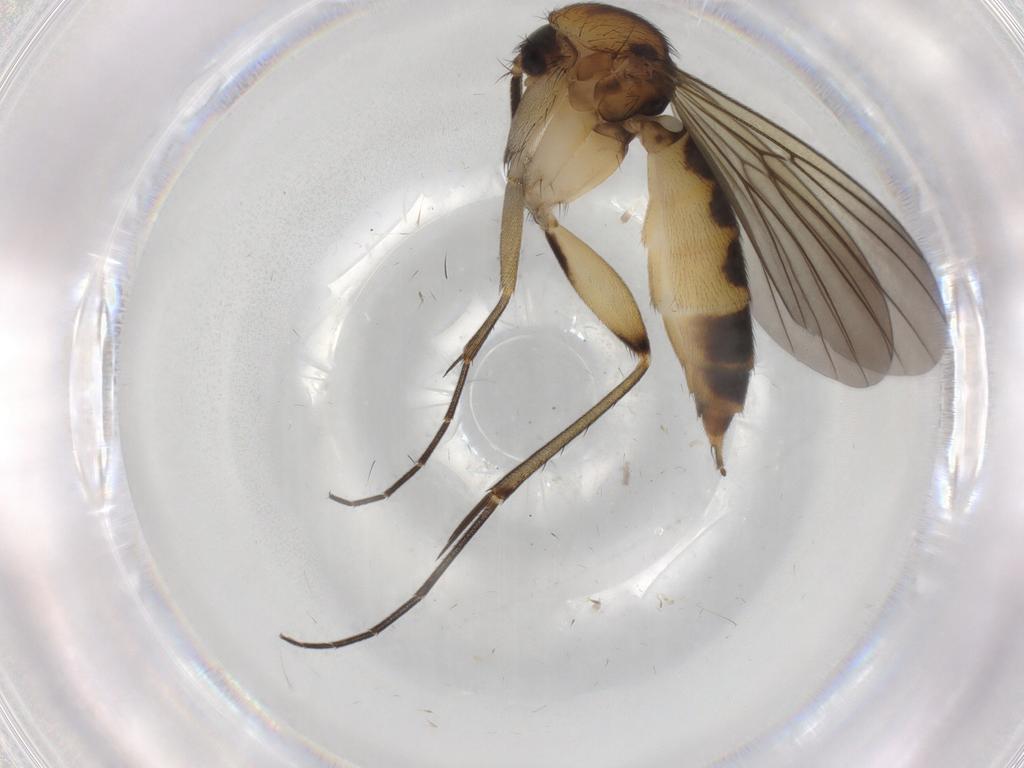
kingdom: Animalia
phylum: Arthropoda
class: Insecta
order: Diptera
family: Mycetophilidae
